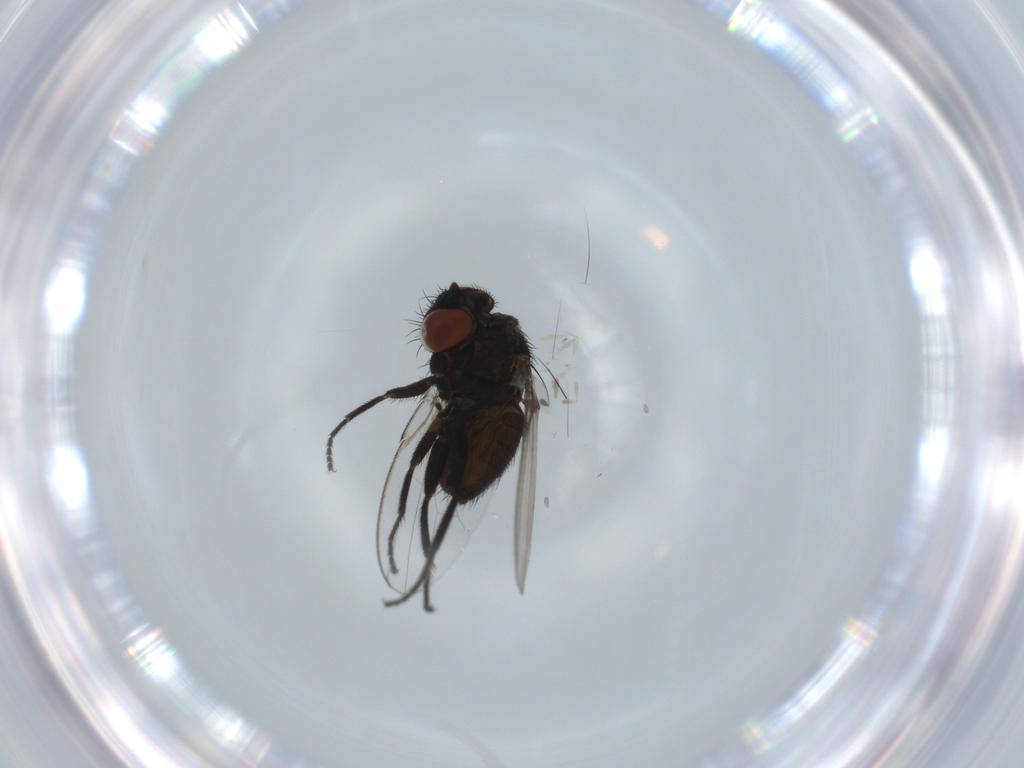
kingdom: Animalia
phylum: Arthropoda
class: Insecta
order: Diptera
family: Milichiidae
